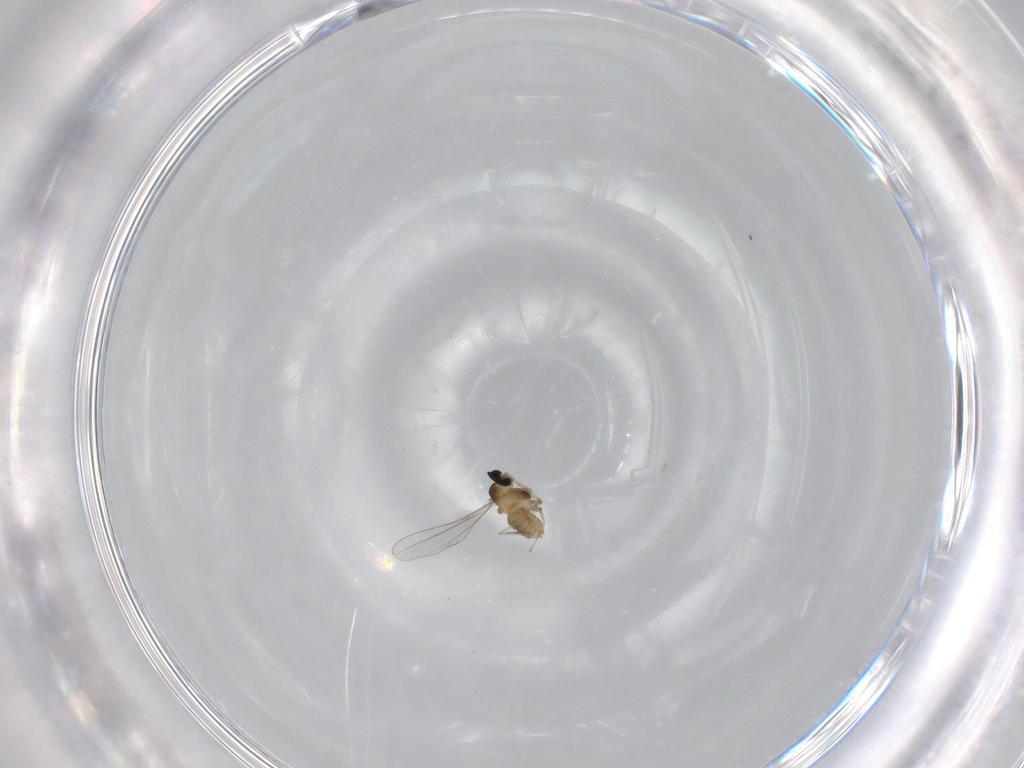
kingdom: Animalia
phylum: Arthropoda
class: Insecta
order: Diptera
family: Cecidomyiidae
